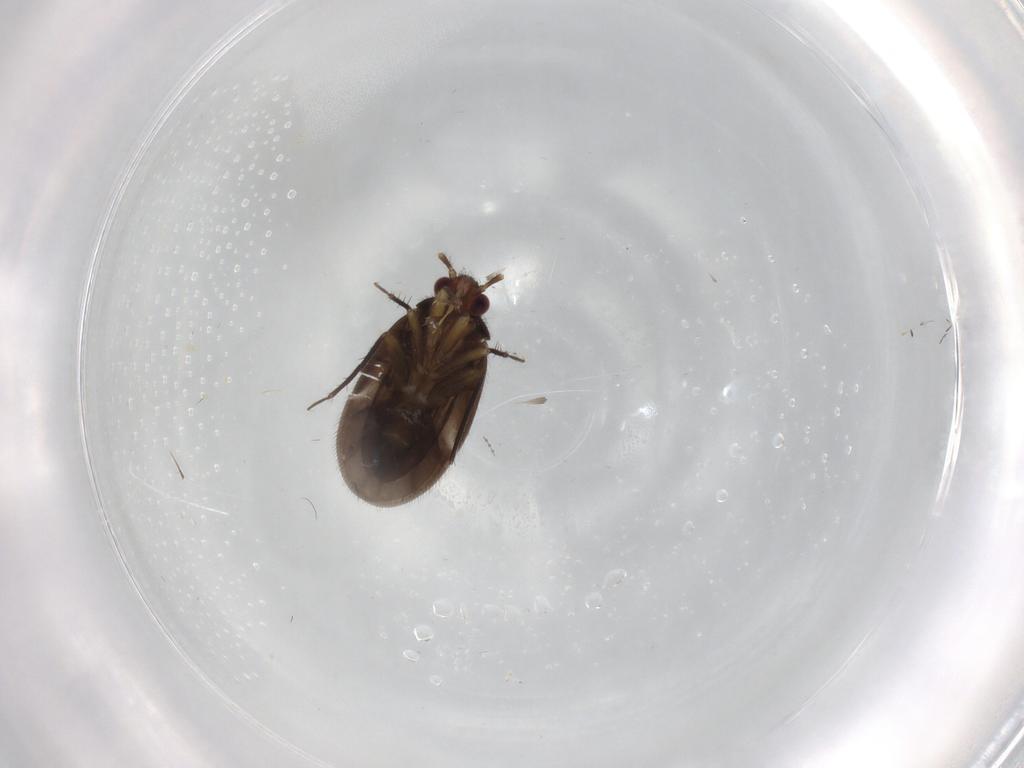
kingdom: Animalia
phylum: Arthropoda
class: Insecta
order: Hemiptera
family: Ceratocombidae
